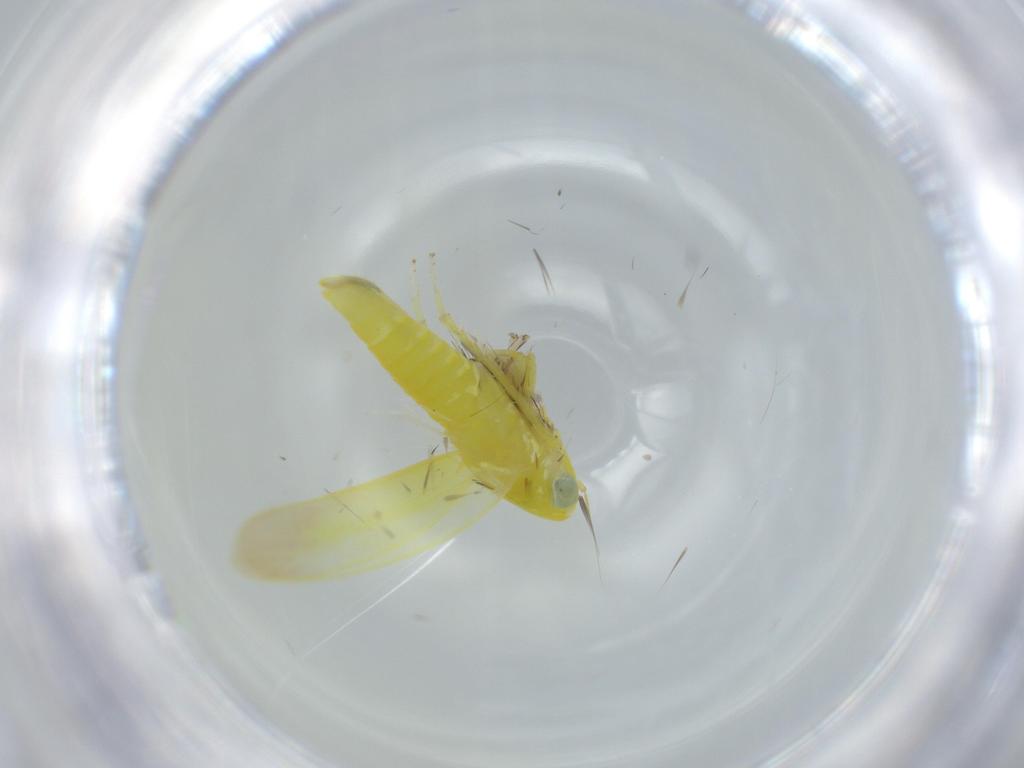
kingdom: Animalia
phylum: Arthropoda
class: Insecta
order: Hemiptera
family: Cicadellidae
